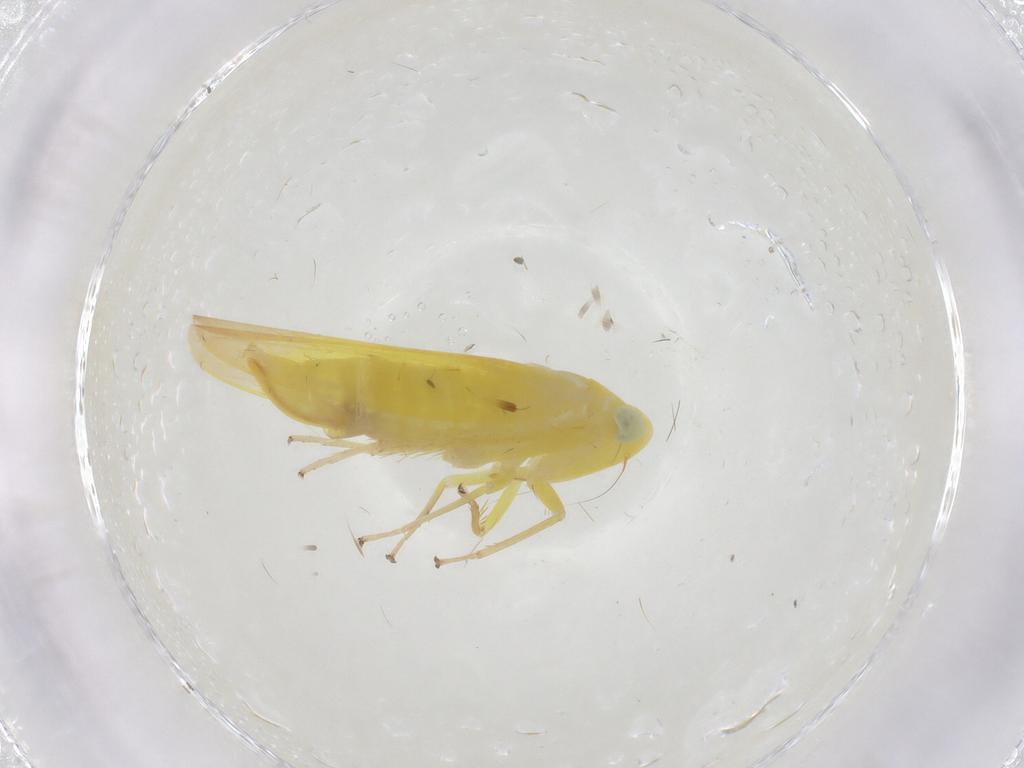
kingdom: Animalia
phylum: Arthropoda
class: Insecta
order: Hemiptera
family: Cicadellidae
